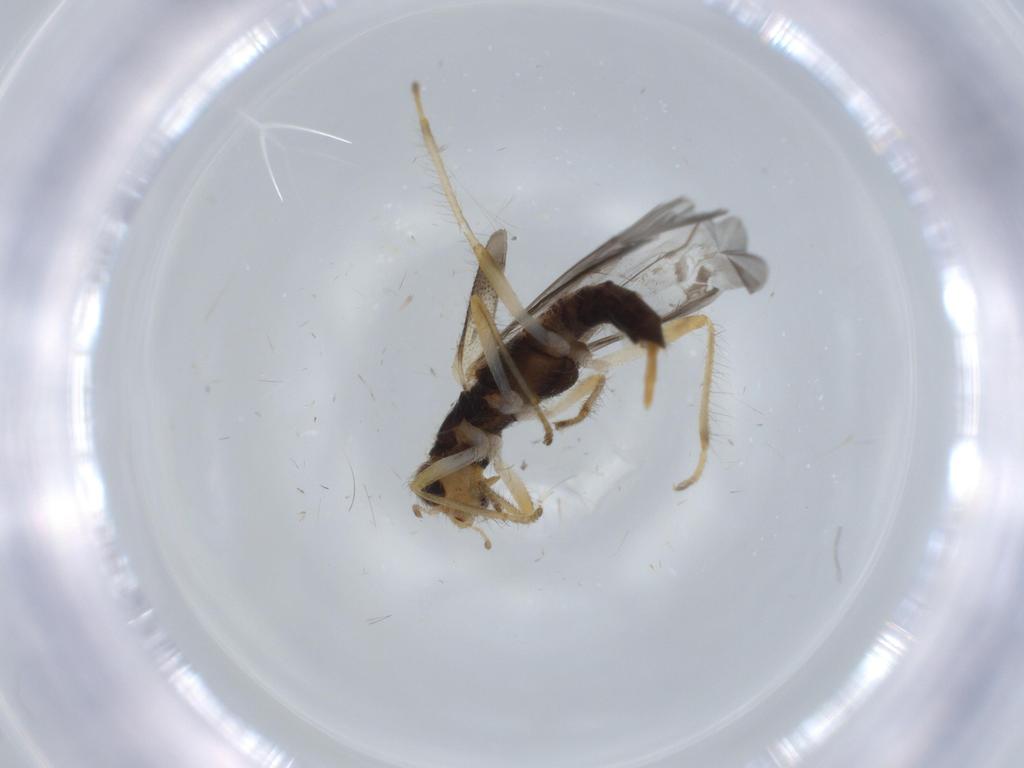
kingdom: Animalia
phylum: Arthropoda
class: Insecta
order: Coleoptera
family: Cleridae
